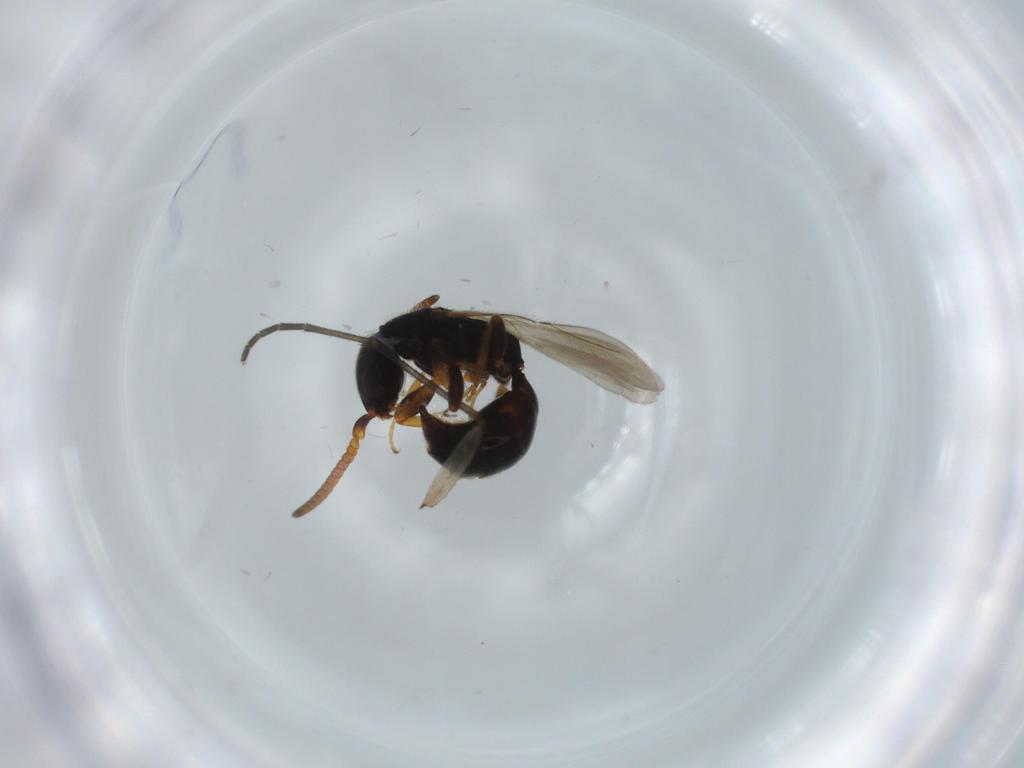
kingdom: Animalia
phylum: Arthropoda
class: Insecta
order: Hymenoptera
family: Bethylidae
